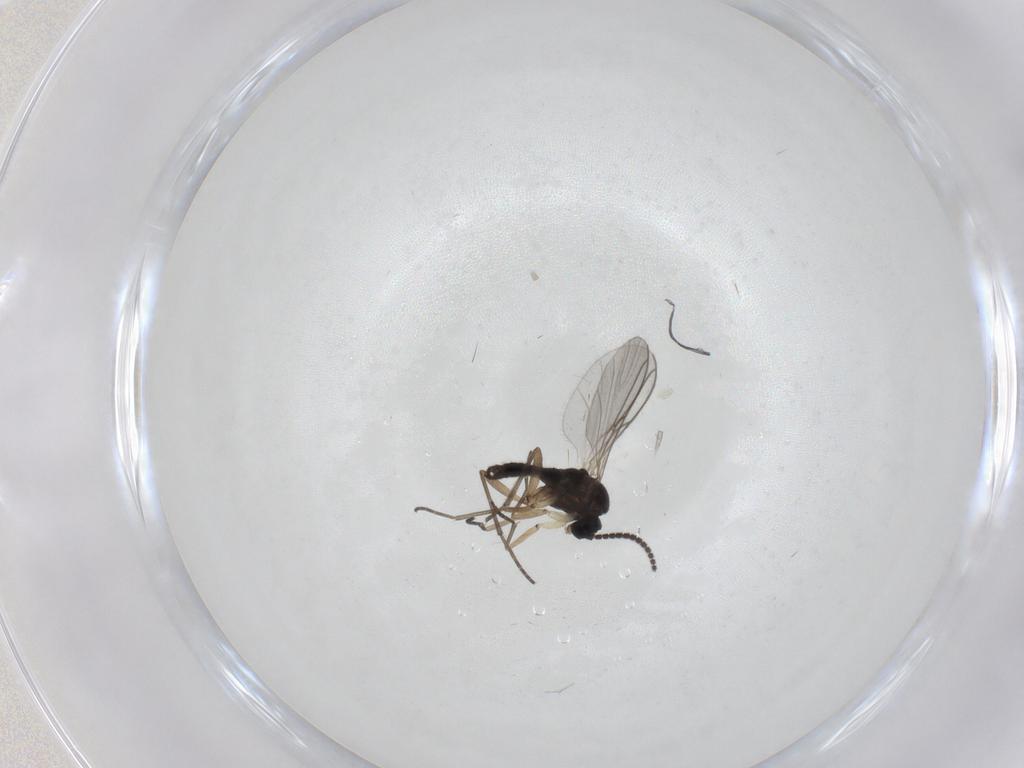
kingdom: Animalia
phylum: Arthropoda
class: Insecta
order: Diptera
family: Sciaridae
